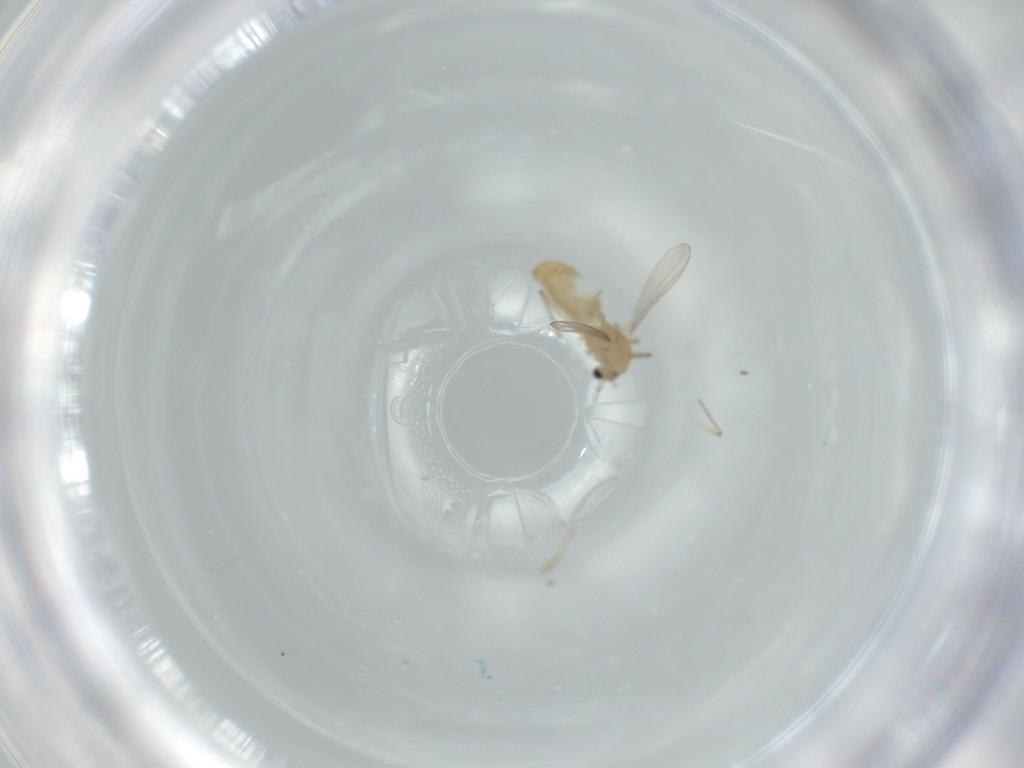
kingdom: Animalia
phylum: Arthropoda
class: Insecta
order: Diptera
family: Chironomidae
